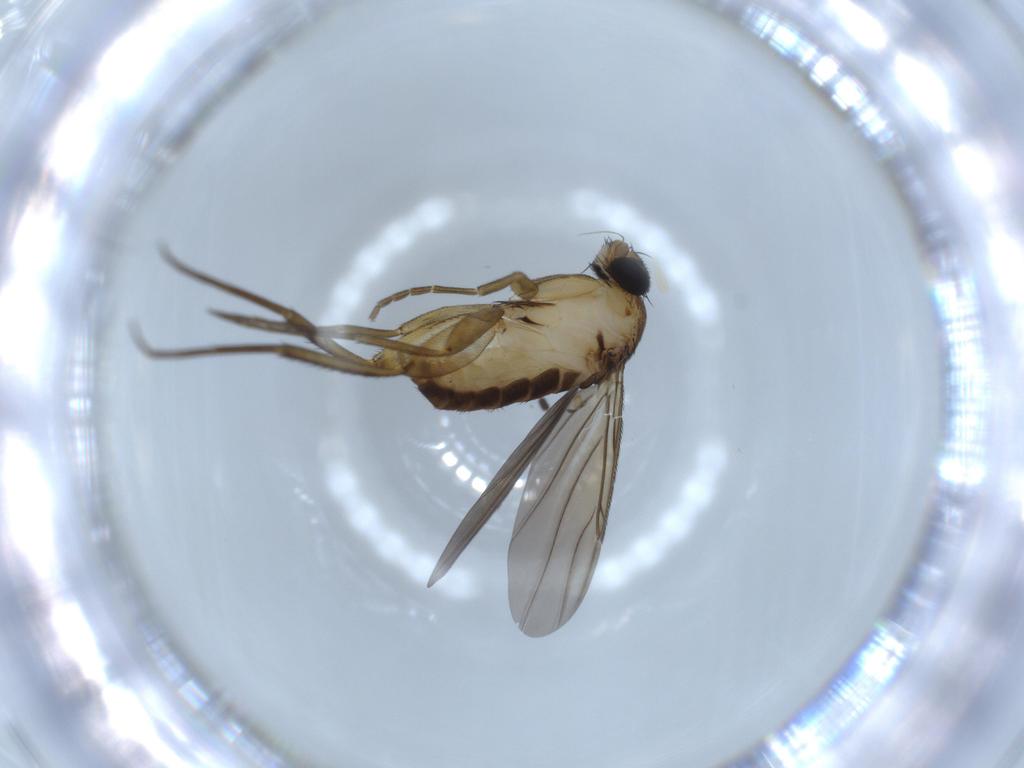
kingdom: Animalia
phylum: Arthropoda
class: Insecta
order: Diptera
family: Phoridae
